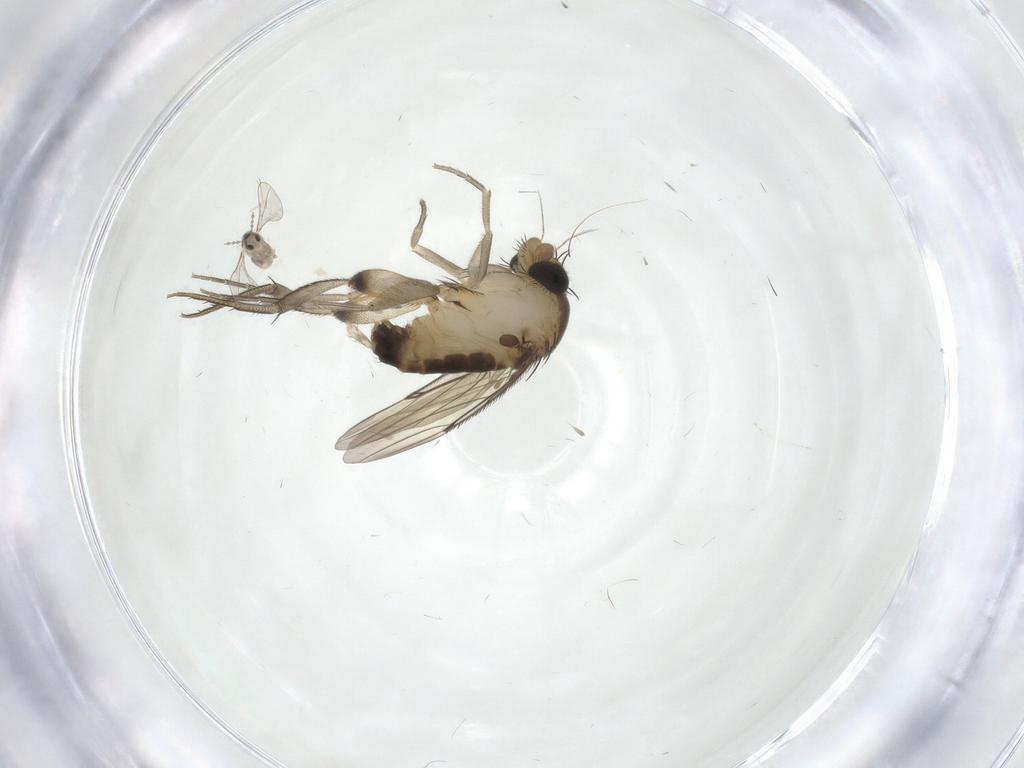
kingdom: Animalia
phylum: Arthropoda
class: Insecta
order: Diptera
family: Phoridae
